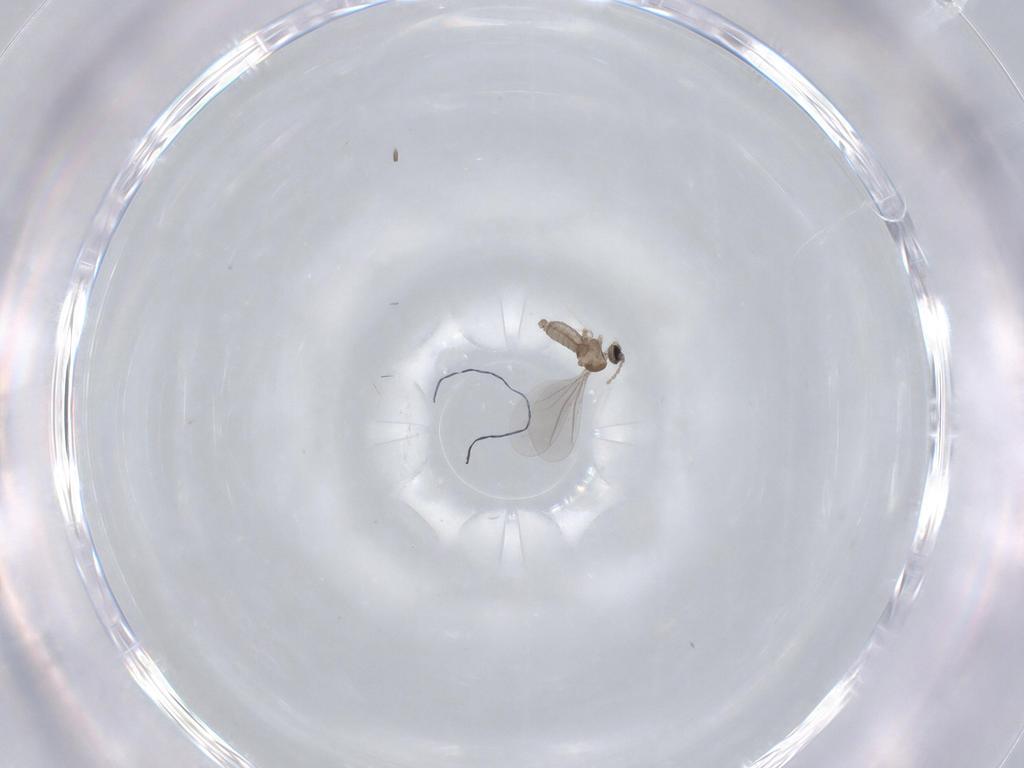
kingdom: Animalia
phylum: Arthropoda
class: Insecta
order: Diptera
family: Cecidomyiidae
